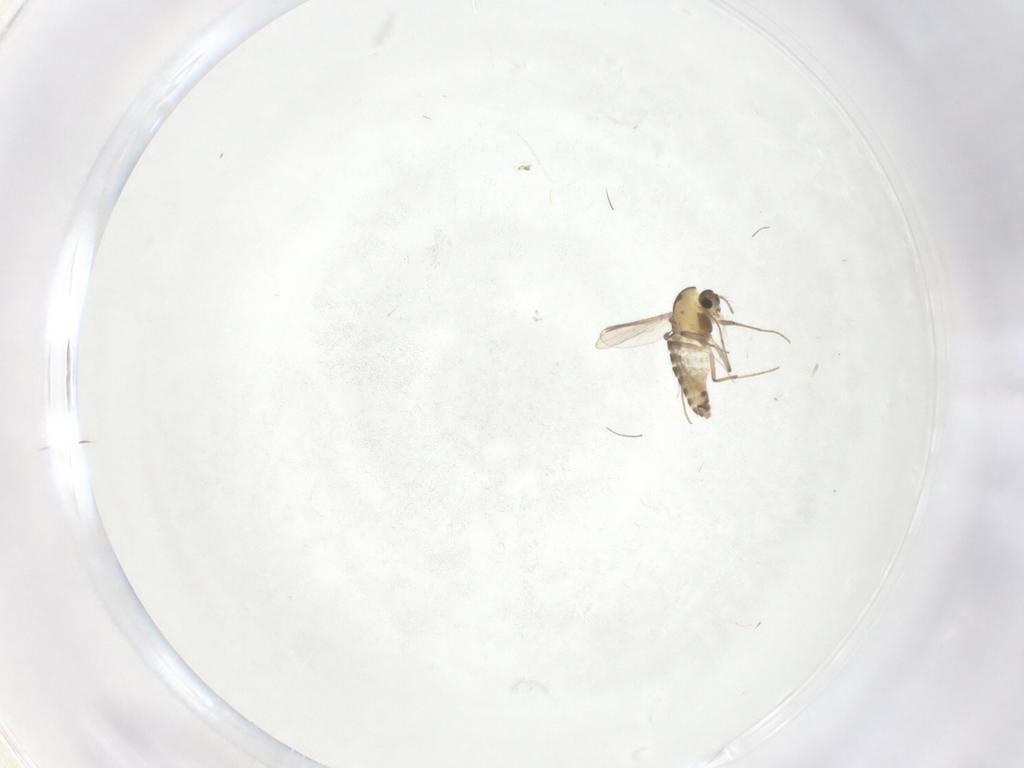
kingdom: Animalia
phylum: Arthropoda
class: Insecta
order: Diptera
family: Chironomidae
